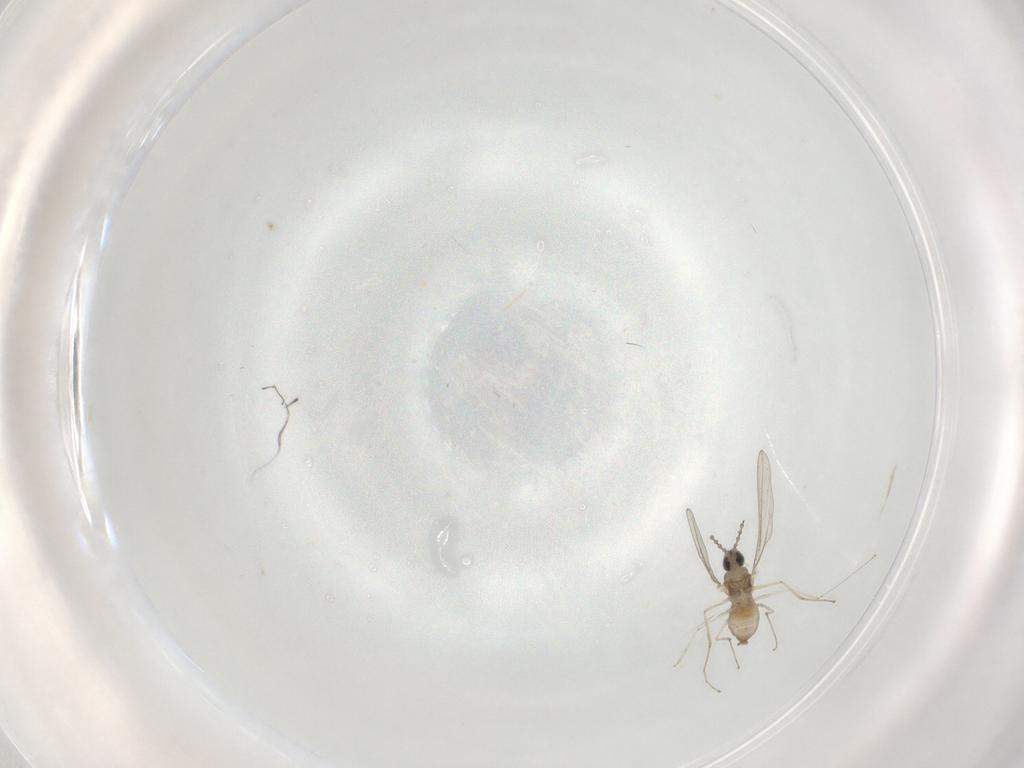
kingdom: Animalia
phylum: Arthropoda
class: Insecta
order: Diptera
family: Cecidomyiidae
